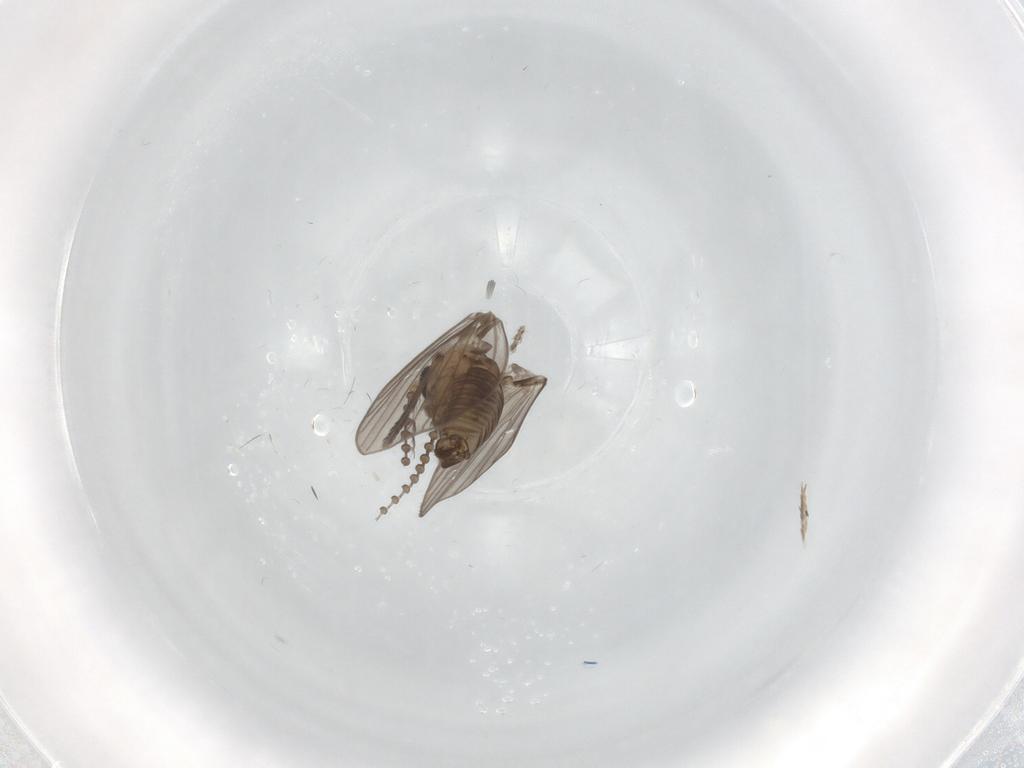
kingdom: Animalia
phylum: Arthropoda
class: Insecta
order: Diptera
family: Psychodidae
